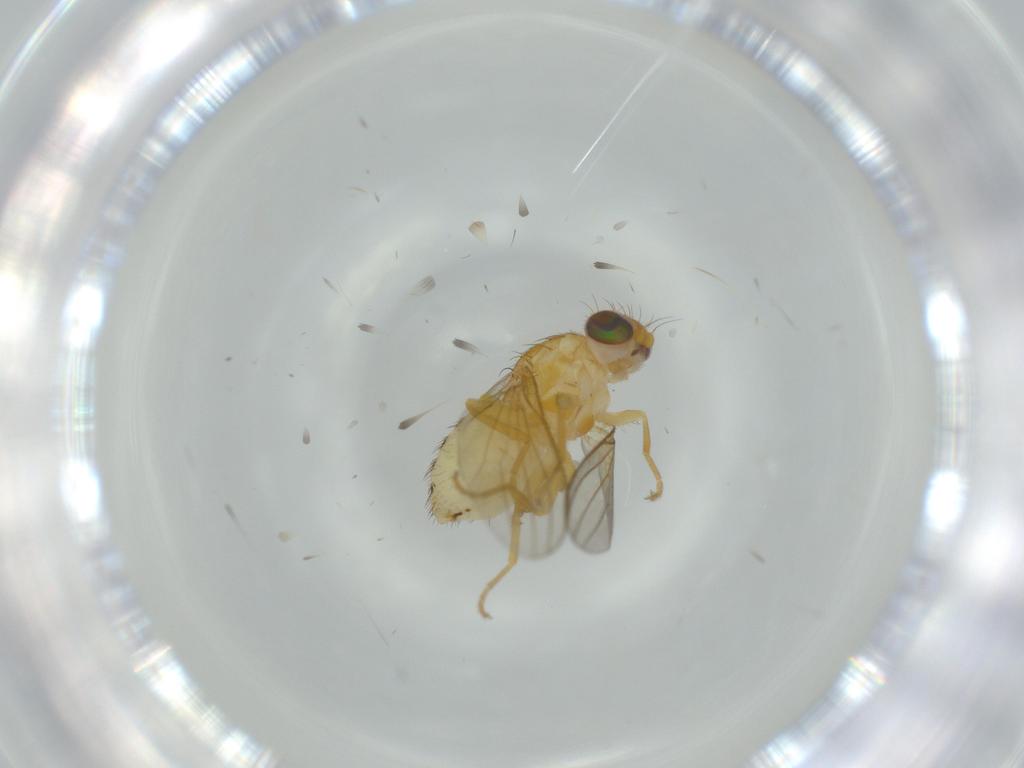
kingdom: Animalia
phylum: Arthropoda
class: Insecta
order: Diptera
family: Chyromyidae
